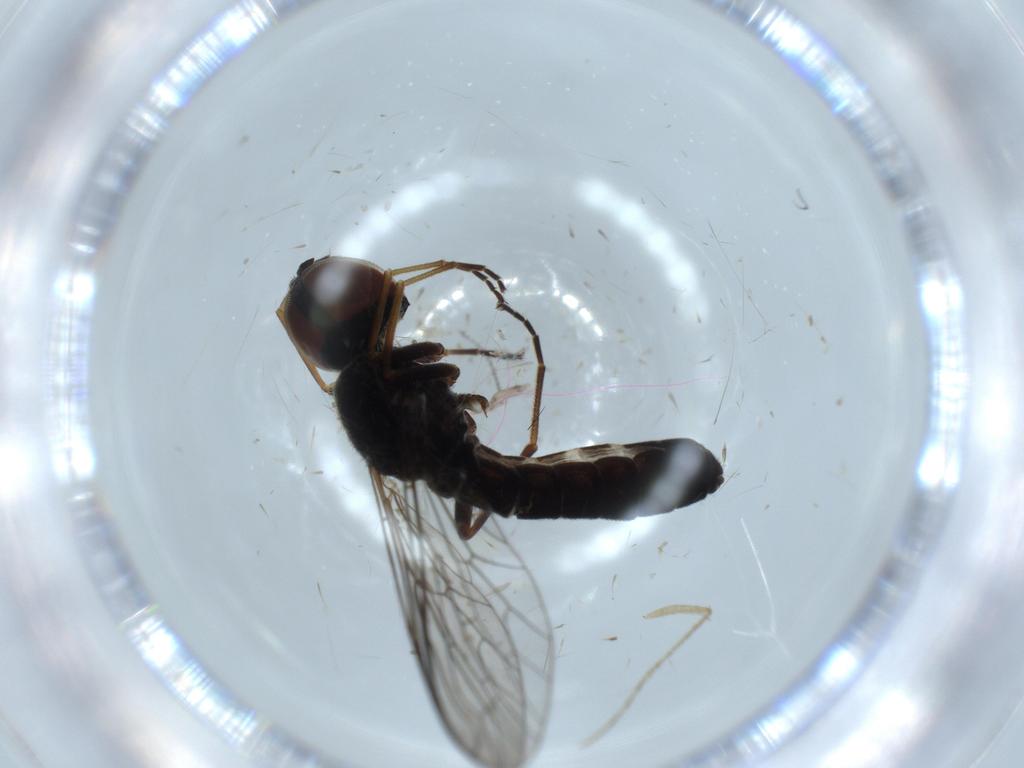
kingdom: Animalia
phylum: Arthropoda
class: Insecta
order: Diptera
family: Bombyliidae
